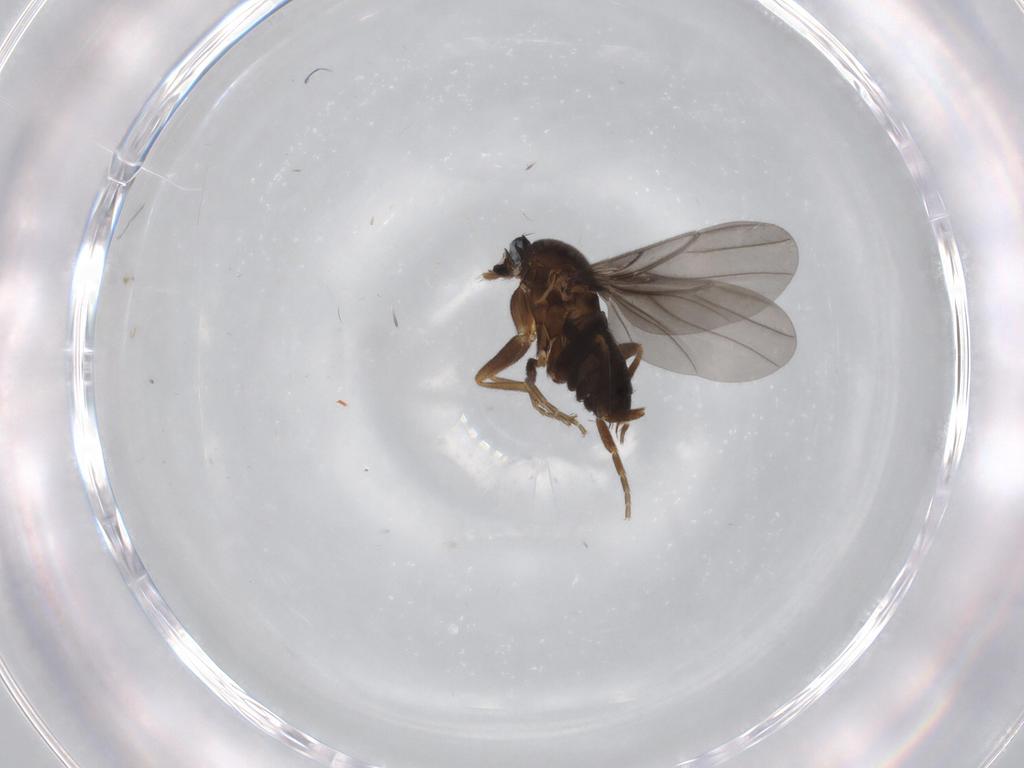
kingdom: Animalia
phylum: Arthropoda
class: Insecta
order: Diptera
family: Phoridae
